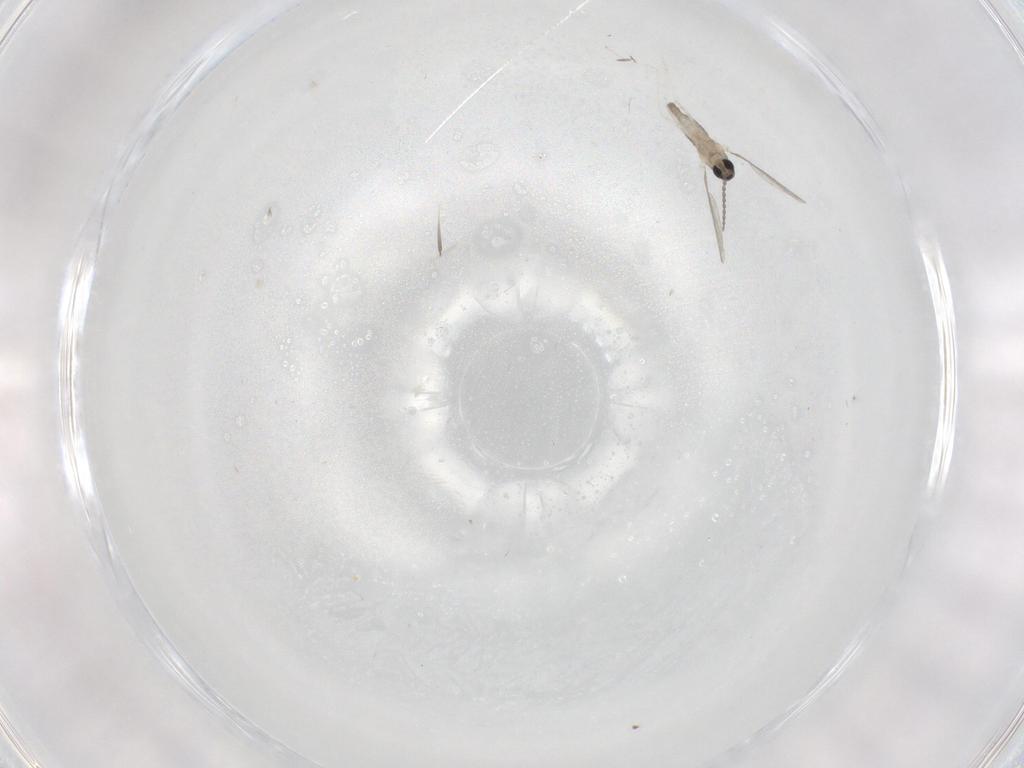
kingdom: Animalia
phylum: Arthropoda
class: Insecta
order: Diptera
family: Cecidomyiidae
